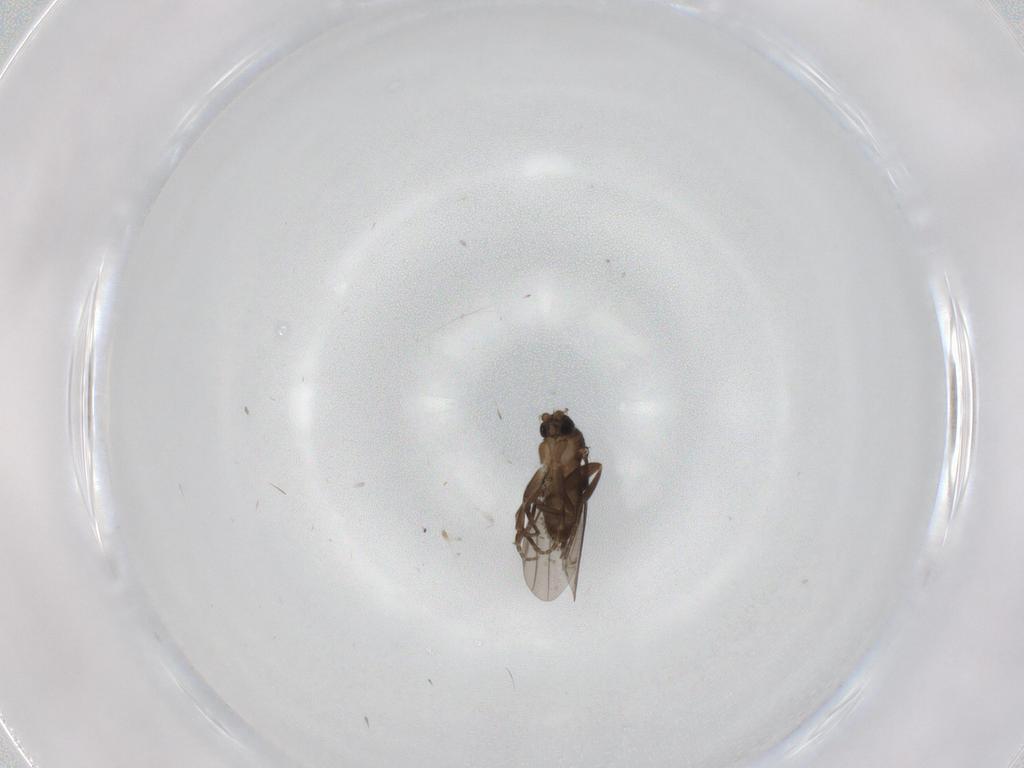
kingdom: Animalia
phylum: Arthropoda
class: Insecta
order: Diptera
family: Phoridae
